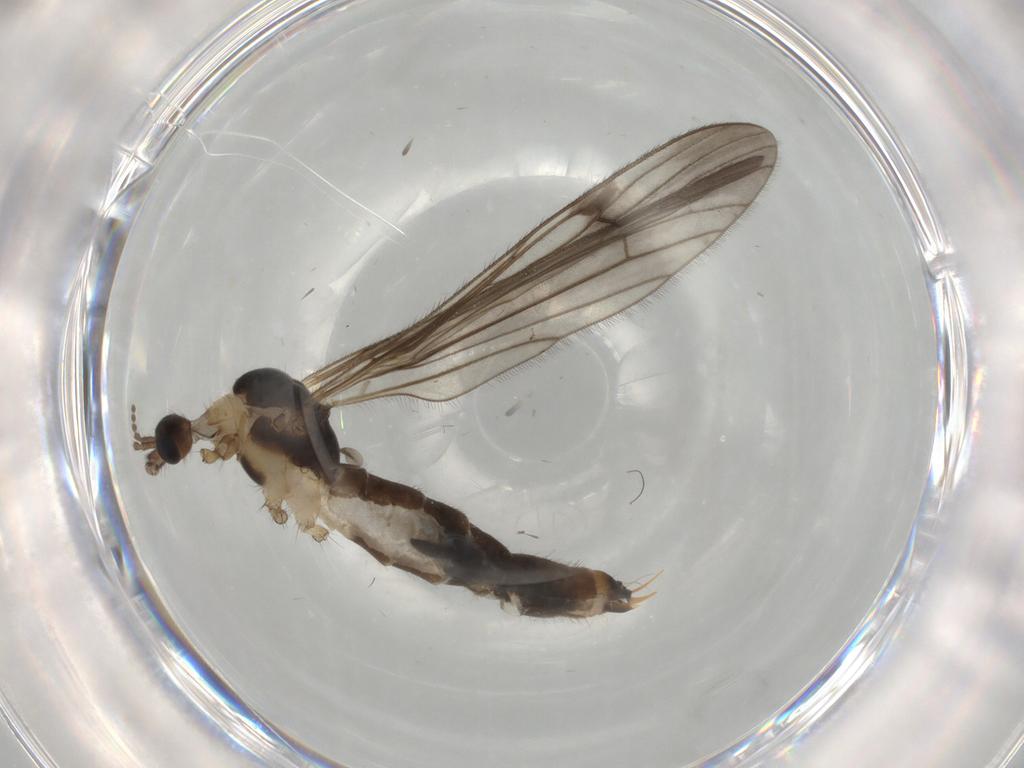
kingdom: Animalia
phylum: Arthropoda
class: Insecta
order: Diptera
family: Limoniidae
